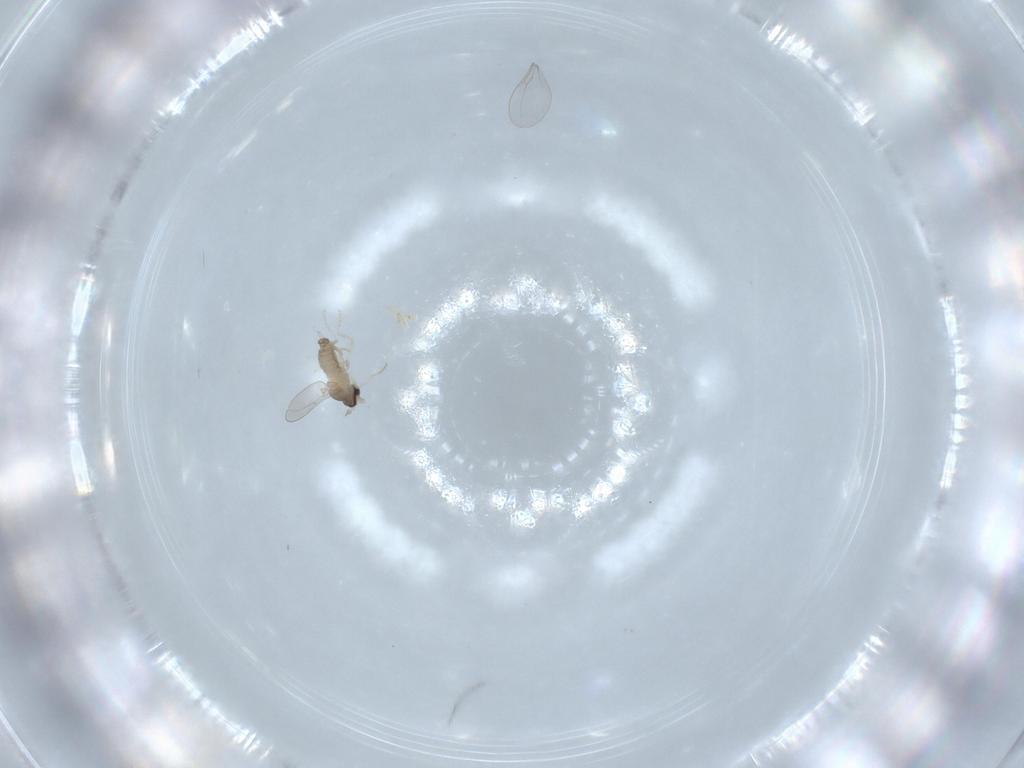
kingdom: Animalia
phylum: Arthropoda
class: Insecta
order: Diptera
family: Cecidomyiidae
